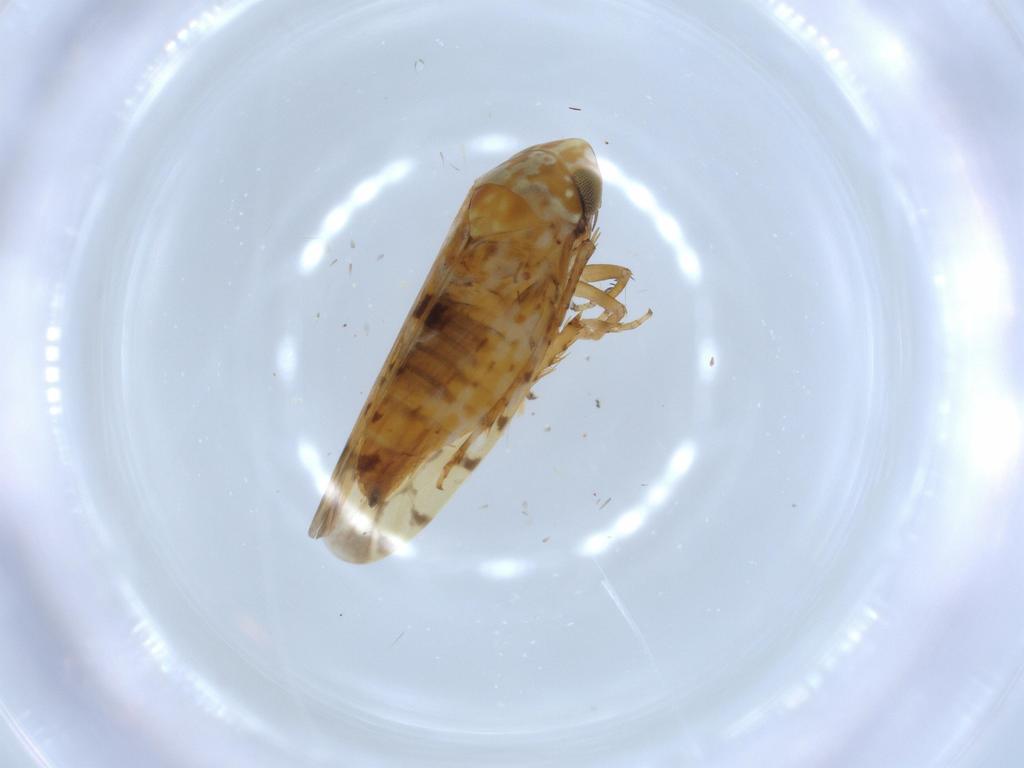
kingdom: Animalia
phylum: Arthropoda
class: Insecta
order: Hemiptera
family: Cicadellidae
